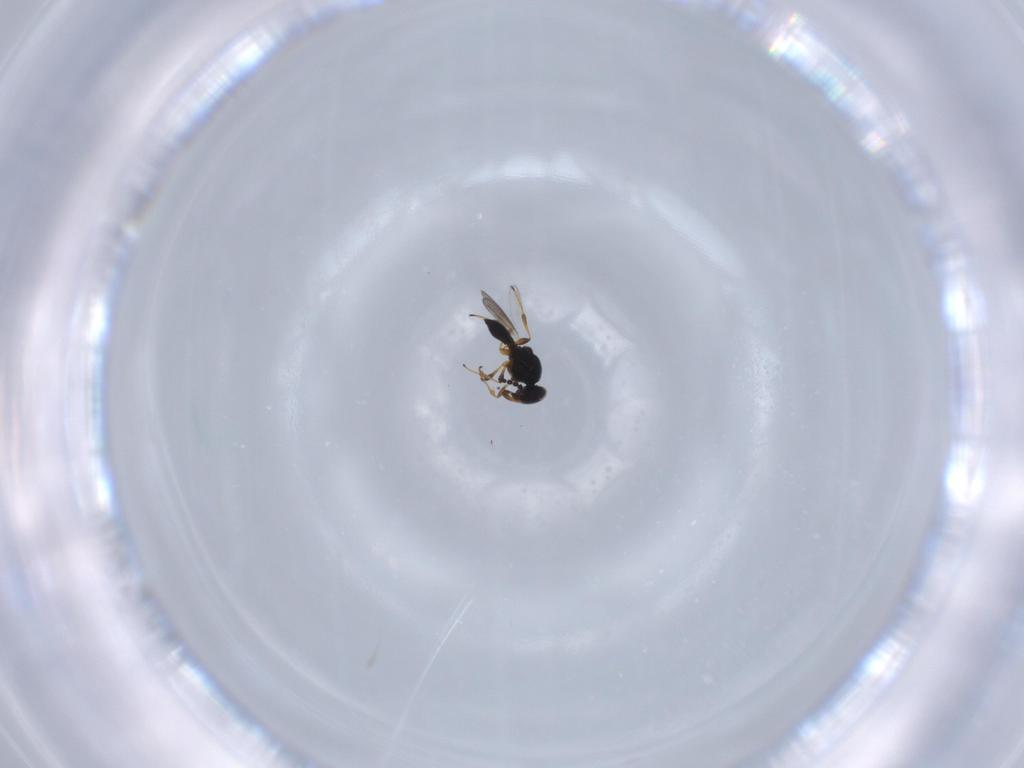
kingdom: Animalia
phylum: Arthropoda
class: Insecta
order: Hymenoptera
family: Platygastridae
